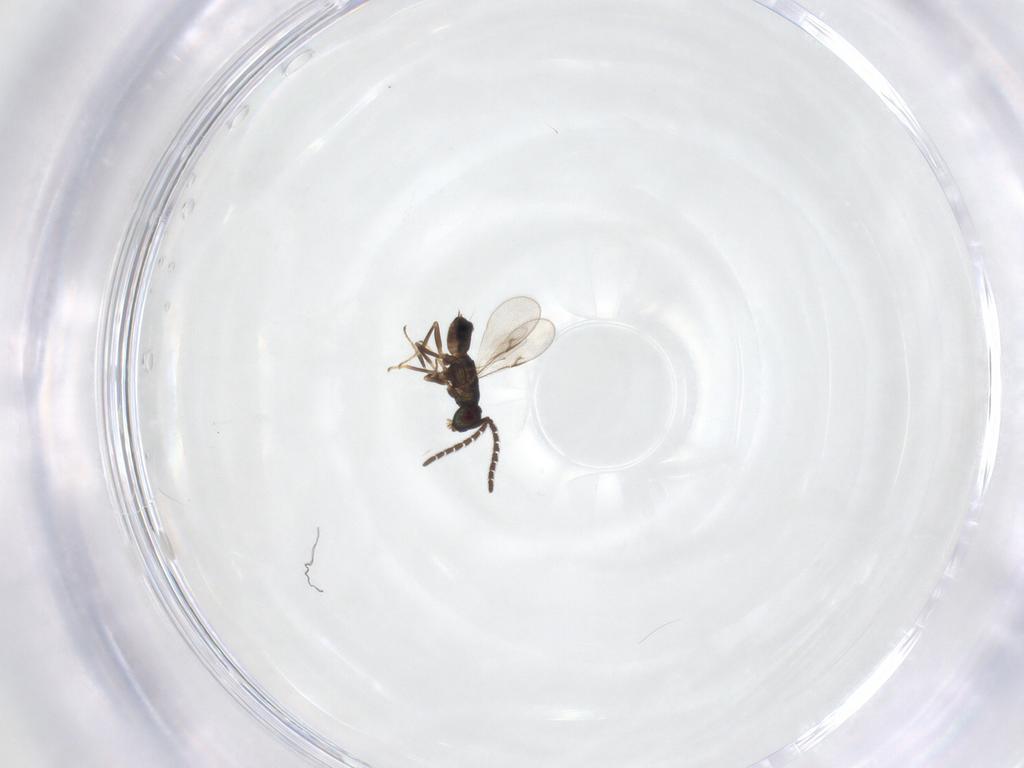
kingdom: Animalia
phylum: Arthropoda
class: Insecta
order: Hymenoptera
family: Encyrtidae
